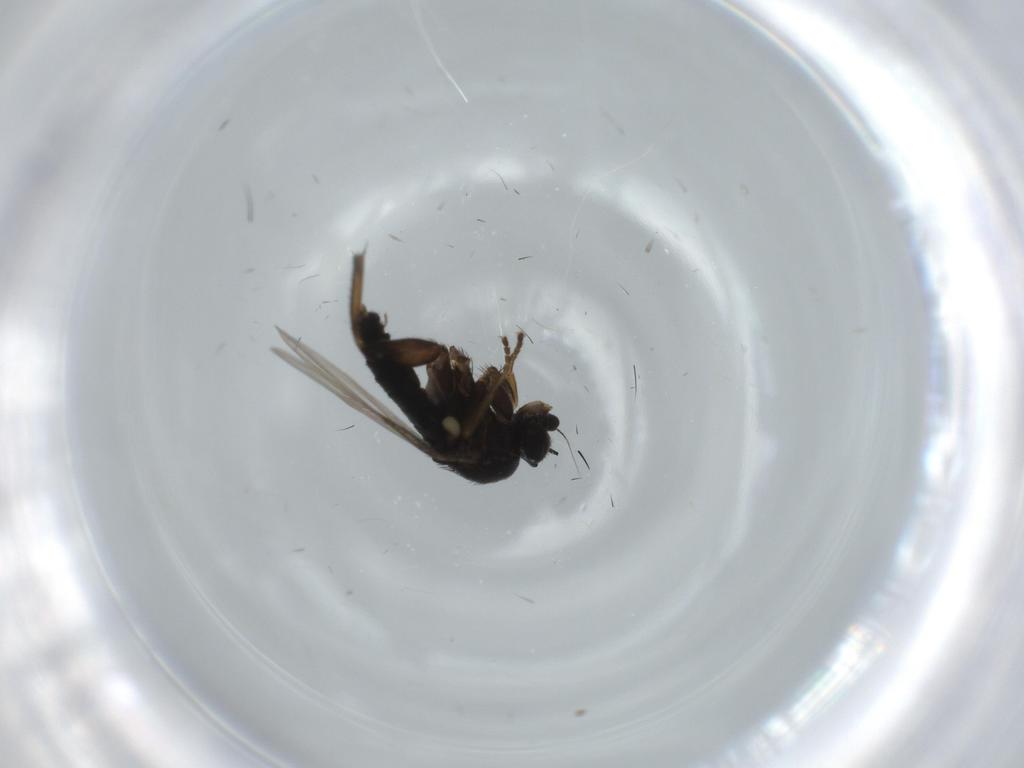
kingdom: Animalia
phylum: Arthropoda
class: Insecta
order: Diptera
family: Phoridae
